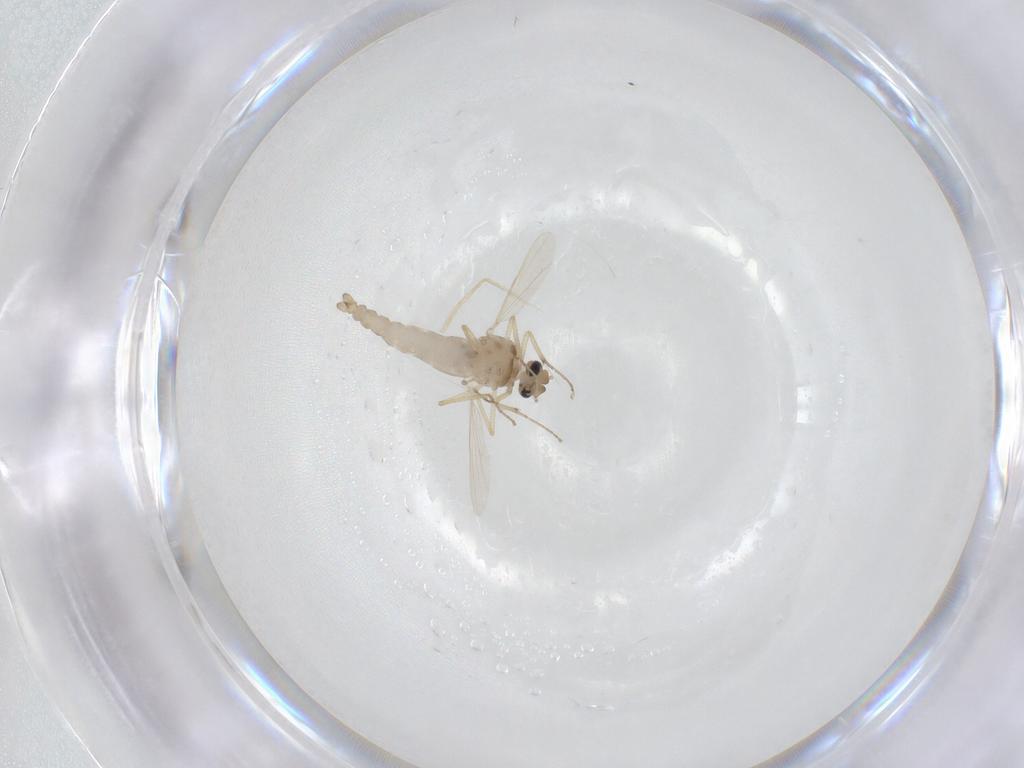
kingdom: Animalia
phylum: Arthropoda
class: Insecta
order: Diptera
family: Ceratopogonidae
